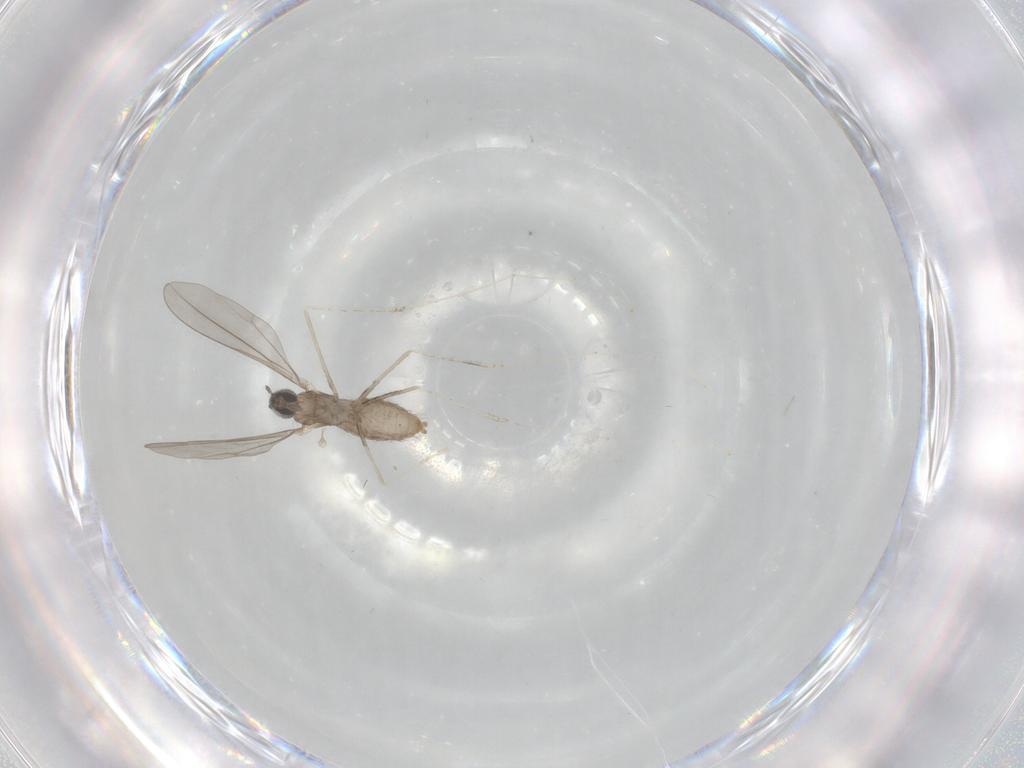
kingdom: Animalia
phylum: Arthropoda
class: Insecta
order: Diptera
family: Cecidomyiidae
